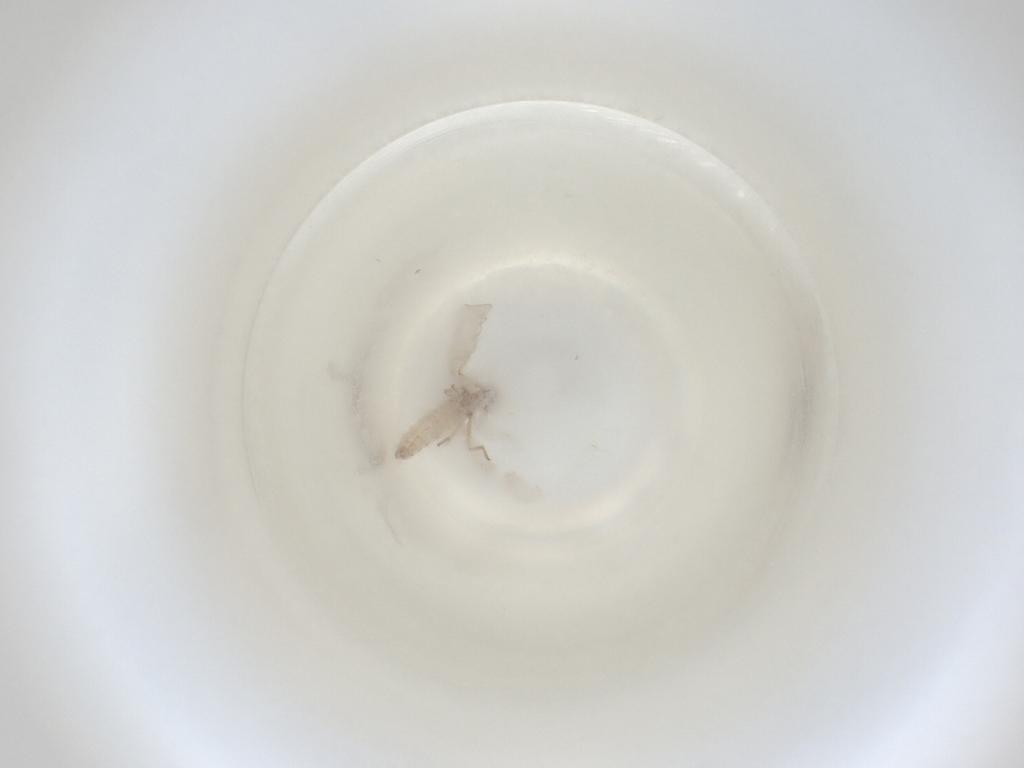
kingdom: Animalia
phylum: Arthropoda
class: Insecta
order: Diptera
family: Cecidomyiidae
